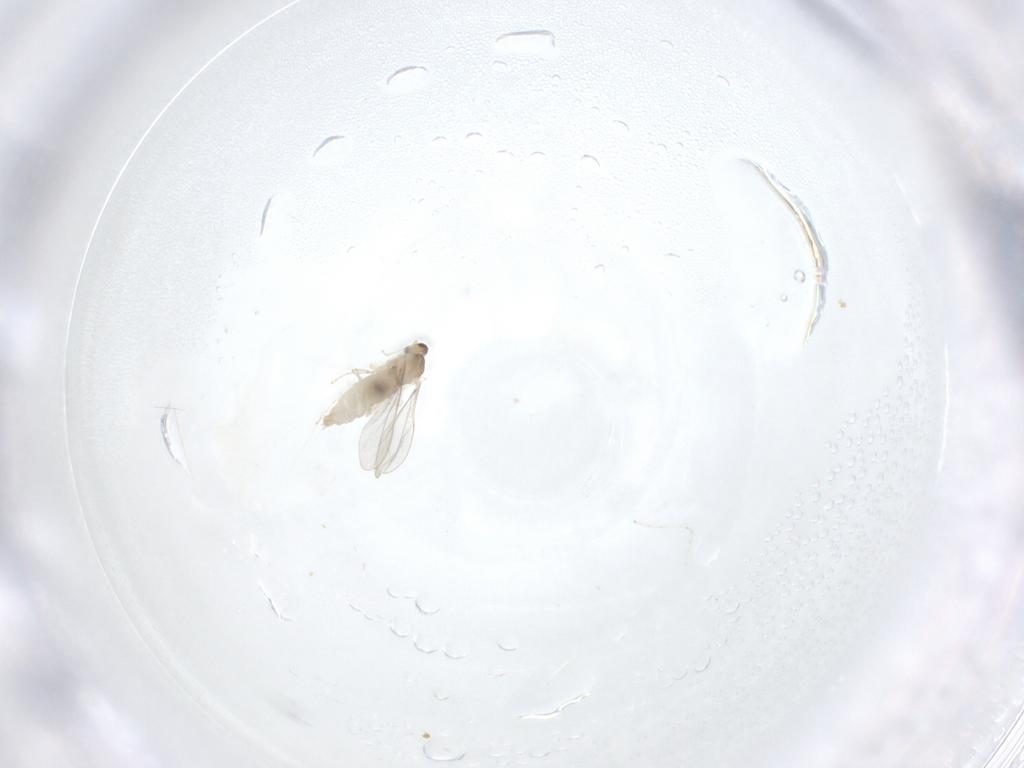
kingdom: Animalia
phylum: Arthropoda
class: Insecta
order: Diptera
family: Cecidomyiidae
